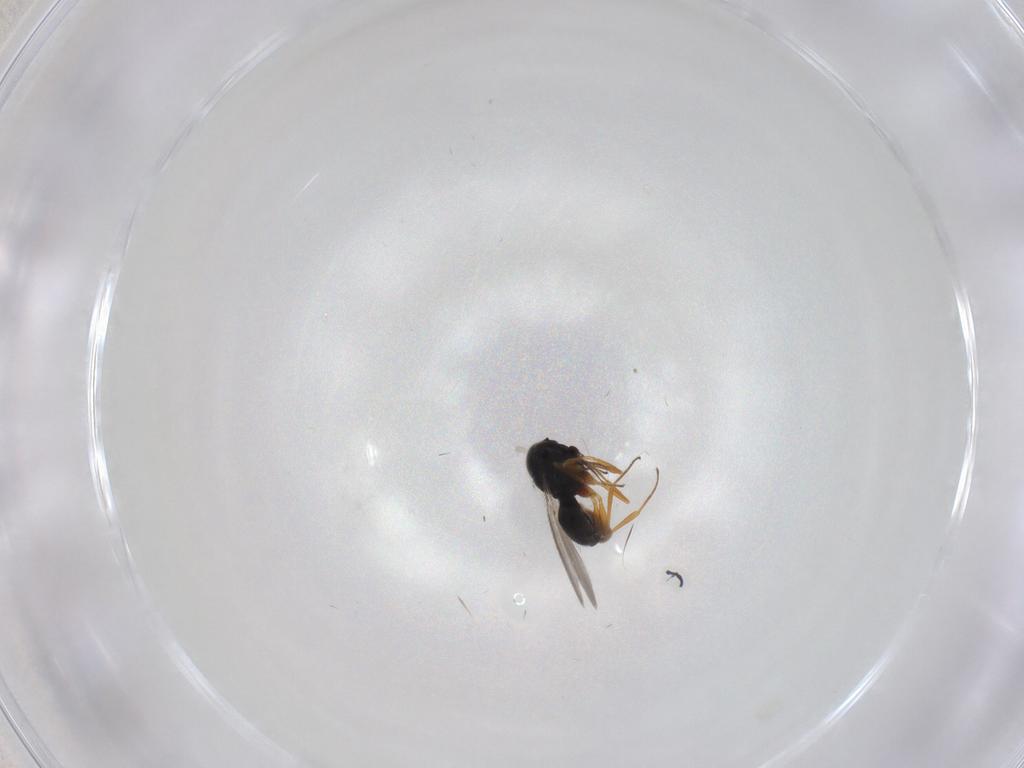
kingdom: Animalia
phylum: Arthropoda
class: Insecta
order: Hymenoptera
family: Scelionidae
